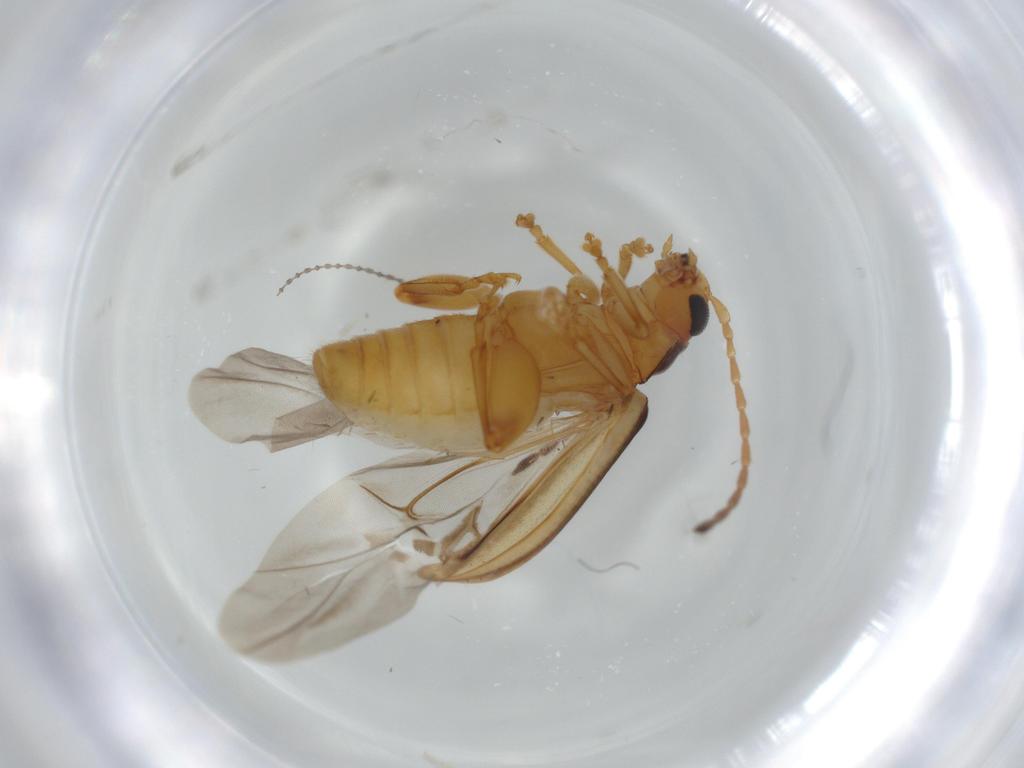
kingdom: Animalia
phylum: Arthropoda
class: Insecta
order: Coleoptera
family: Chrysomelidae
